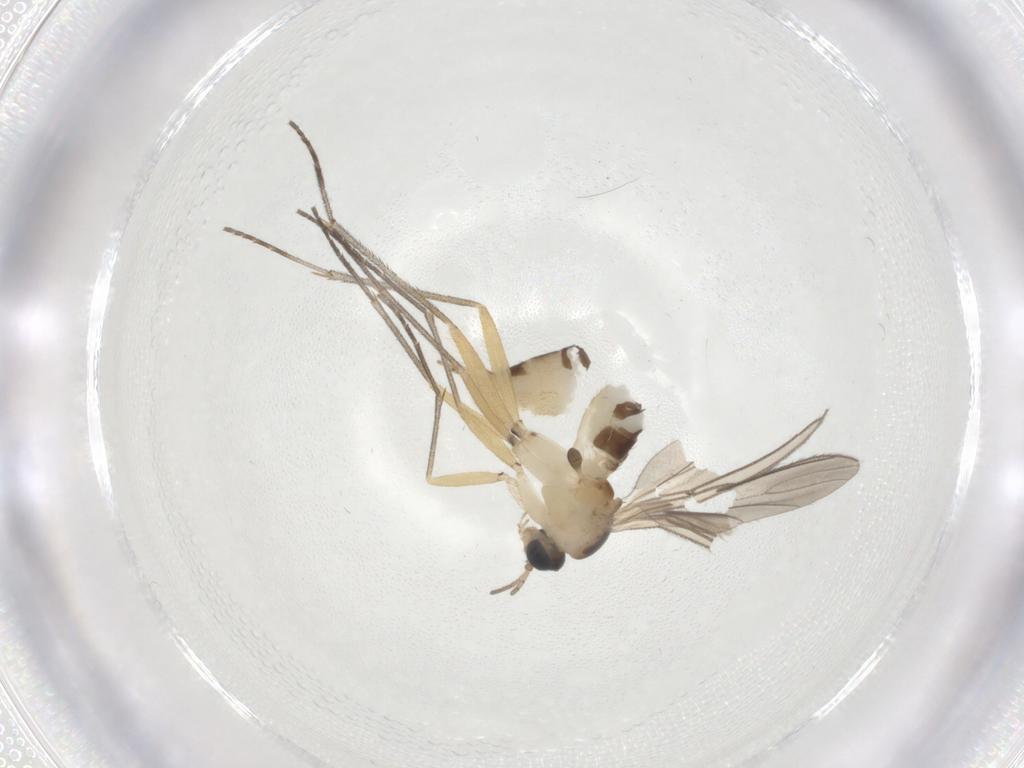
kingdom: Animalia
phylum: Arthropoda
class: Insecta
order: Diptera
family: Sciaridae
